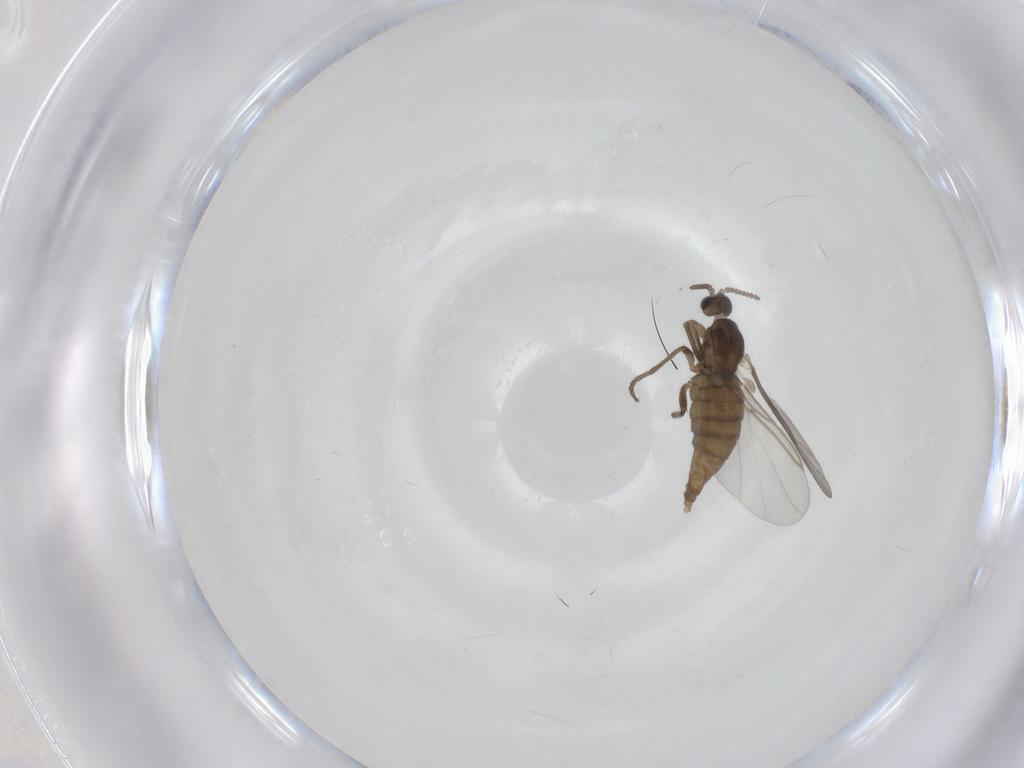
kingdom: Animalia
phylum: Arthropoda
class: Insecta
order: Diptera
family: Cecidomyiidae
